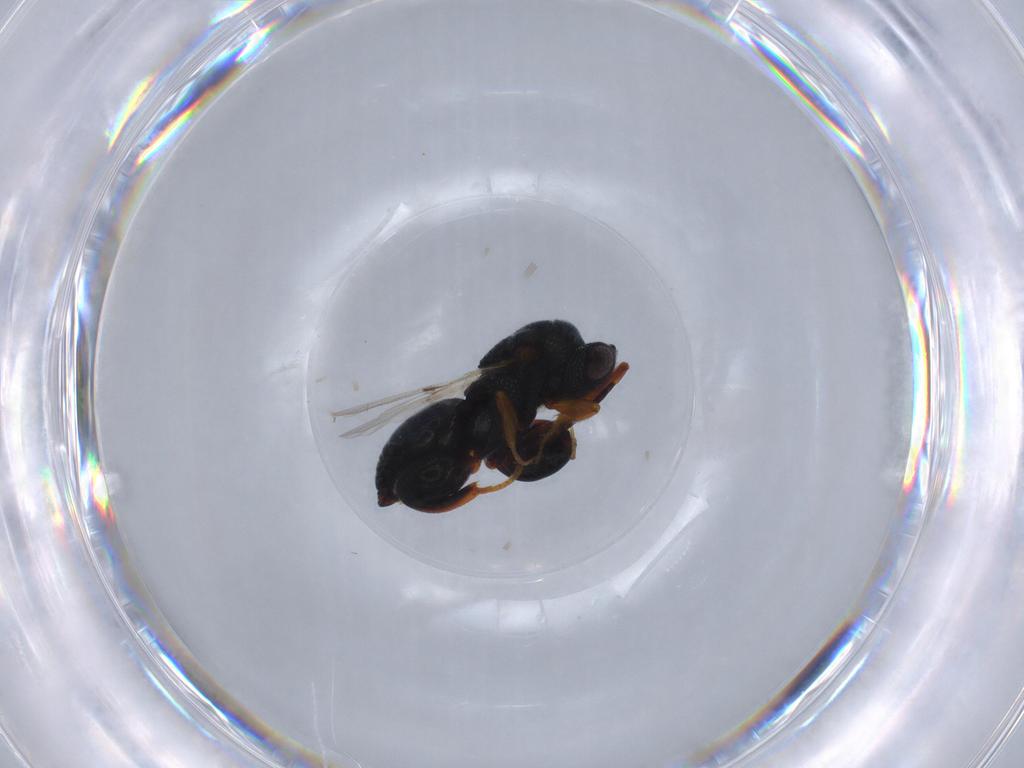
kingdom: Animalia
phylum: Arthropoda
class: Insecta
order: Hymenoptera
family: Chalcididae
